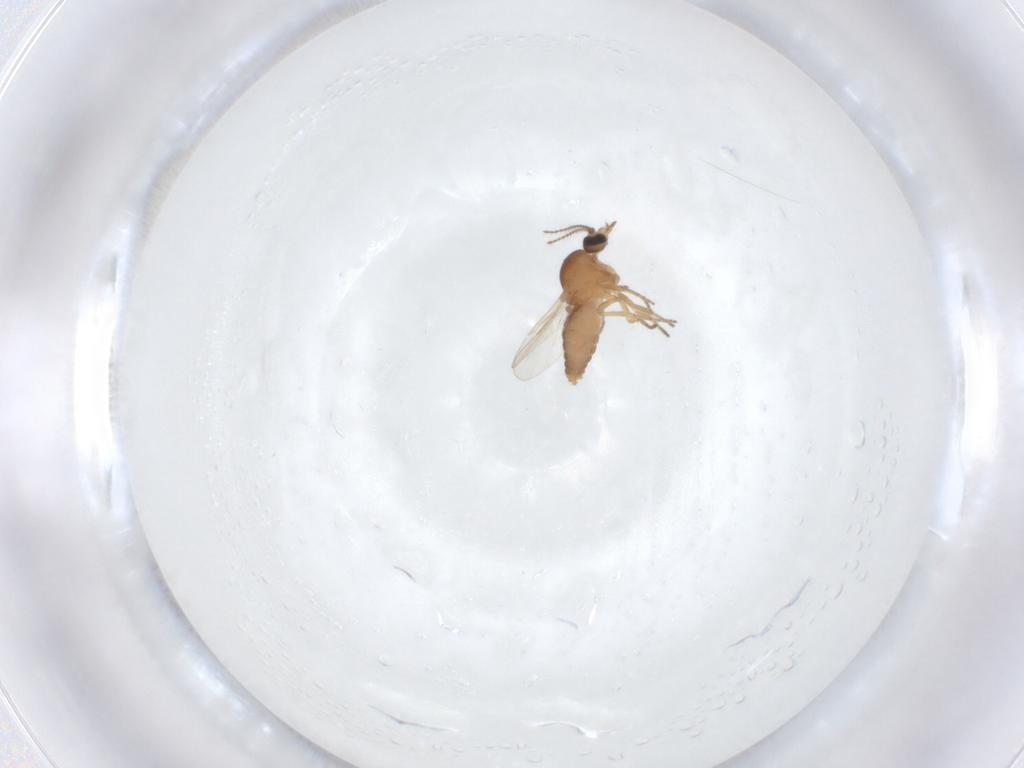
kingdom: Animalia
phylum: Arthropoda
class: Insecta
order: Diptera
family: Ceratopogonidae
